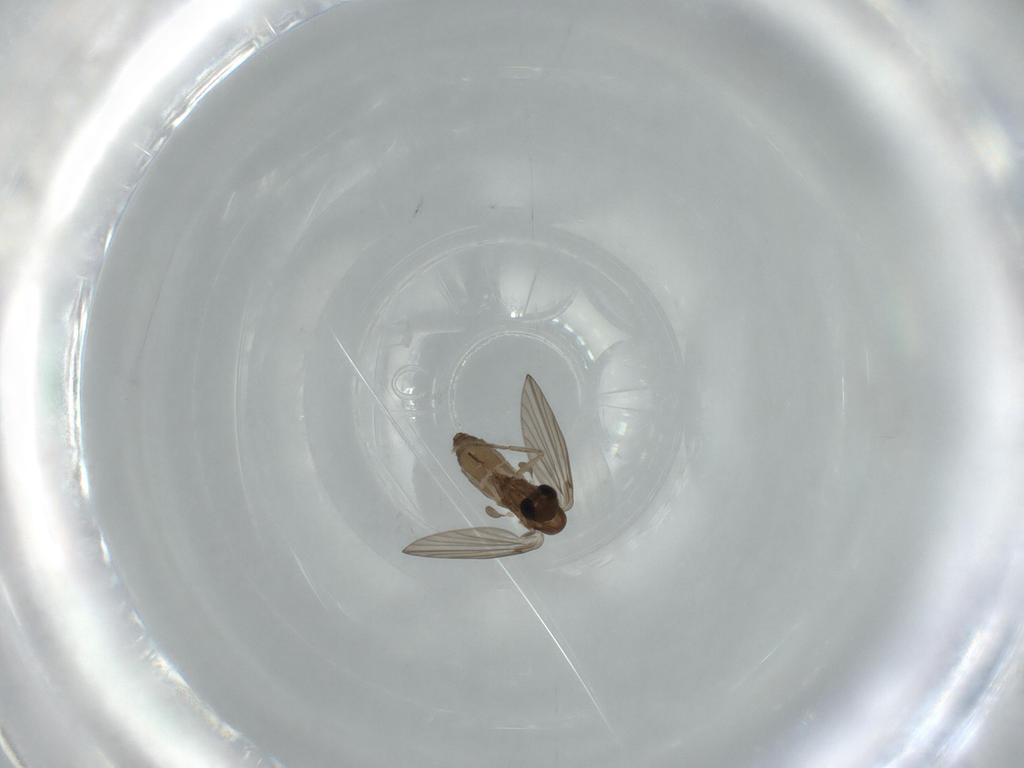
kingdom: Animalia
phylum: Arthropoda
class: Insecta
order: Diptera
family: Psychodidae
